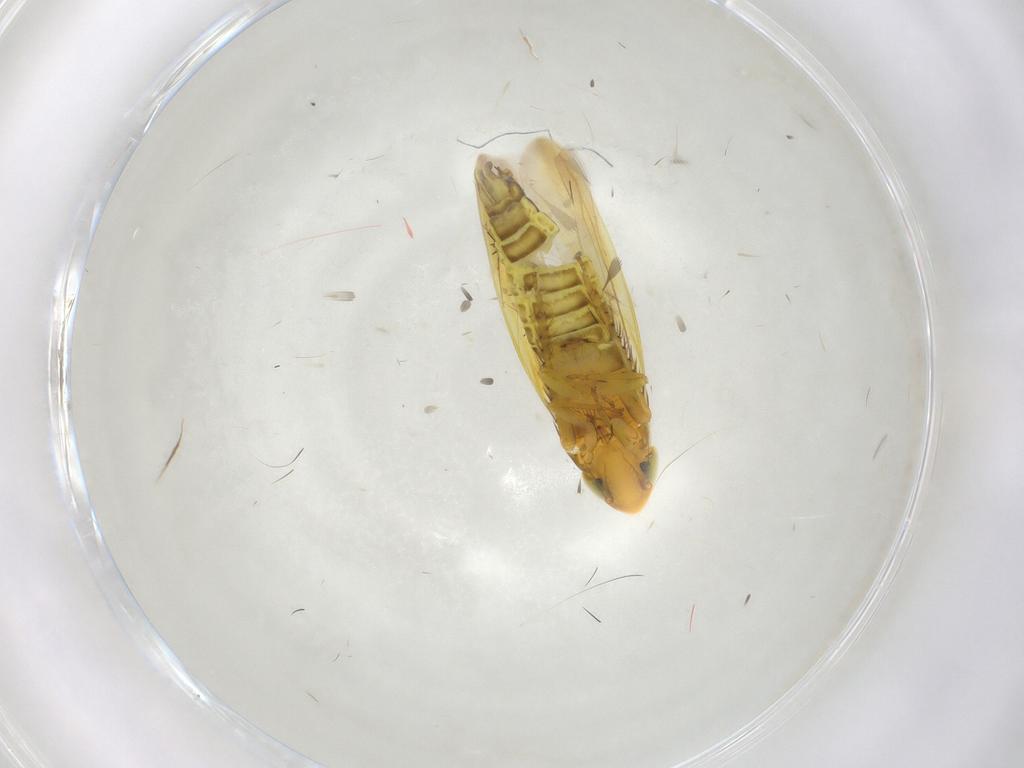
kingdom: Animalia
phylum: Arthropoda
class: Insecta
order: Hemiptera
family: Cicadellidae
